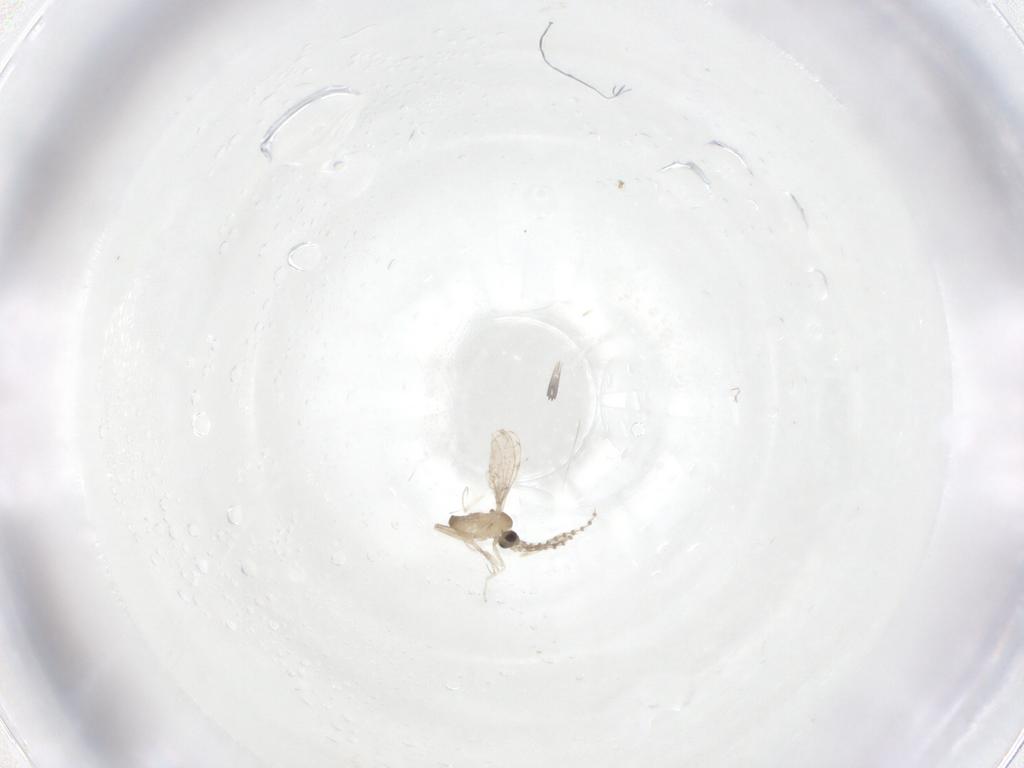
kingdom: Animalia
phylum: Arthropoda
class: Insecta
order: Diptera
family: Cecidomyiidae
